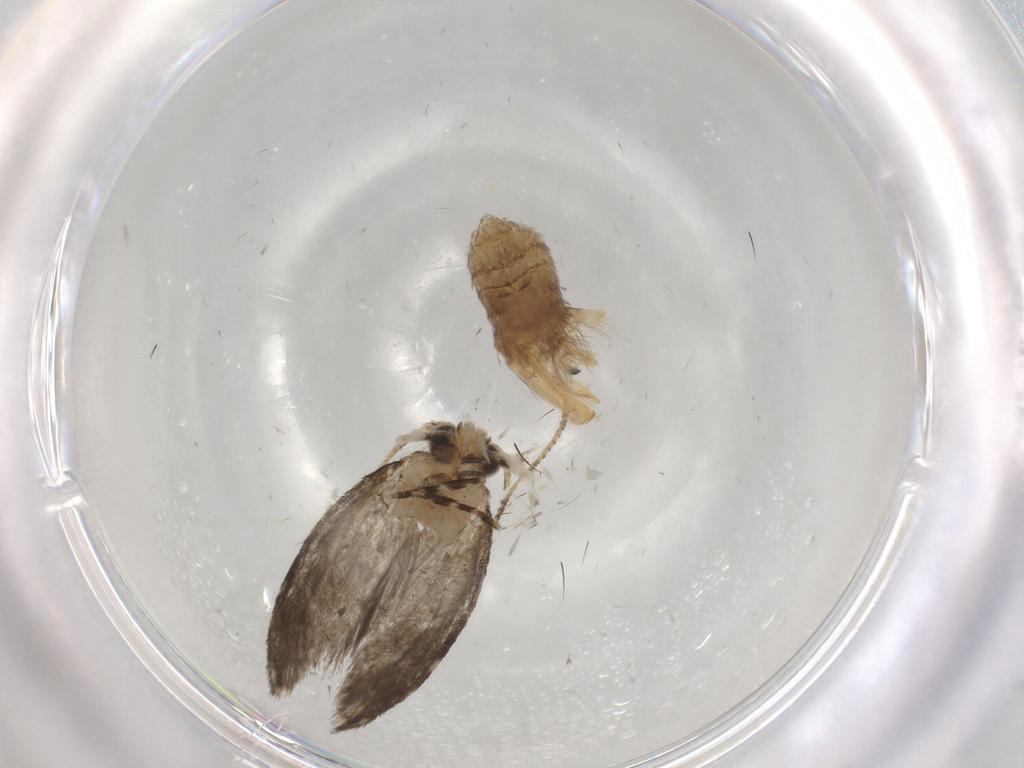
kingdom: Animalia
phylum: Arthropoda
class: Insecta
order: Lepidoptera
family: Tineidae
